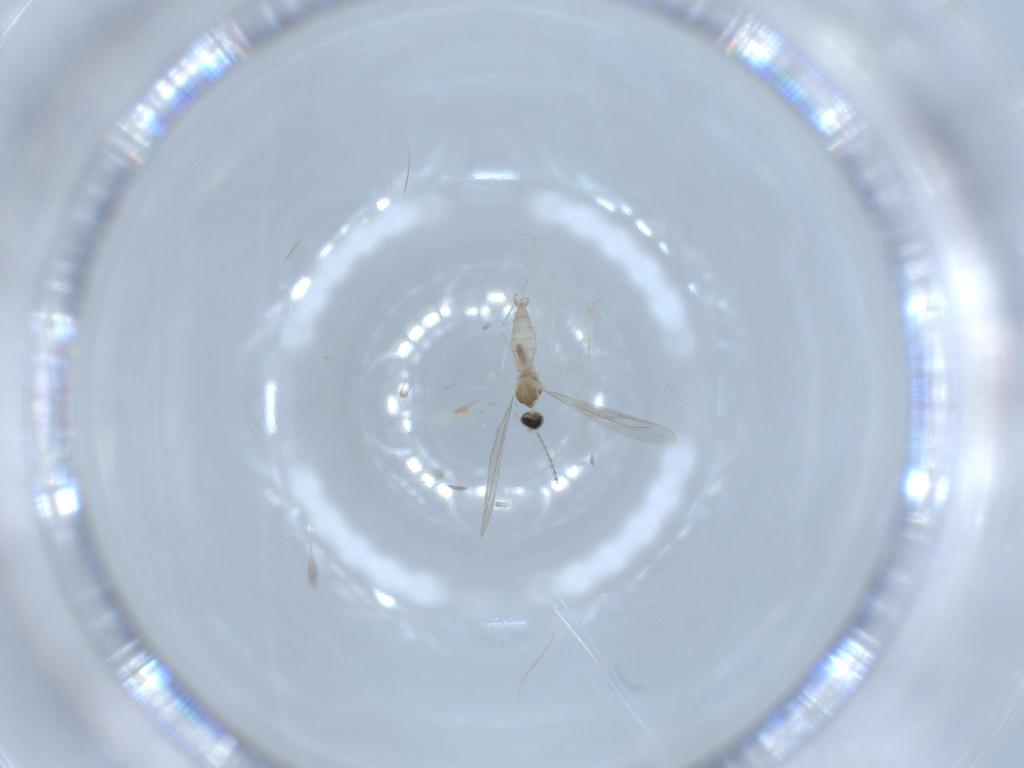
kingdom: Animalia
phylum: Arthropoda
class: Insecta
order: Diptera
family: Cecidomyiidae
